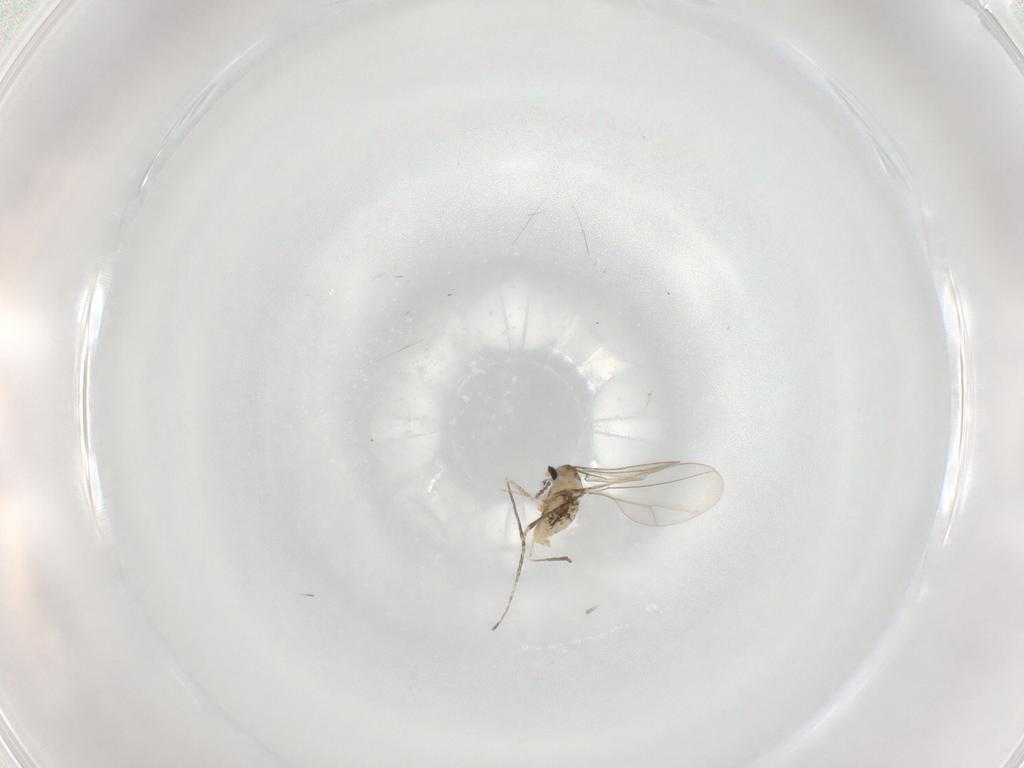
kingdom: Animalia
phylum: Arthropoda
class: Insecta
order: Diptera
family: Cecidomyiidae
